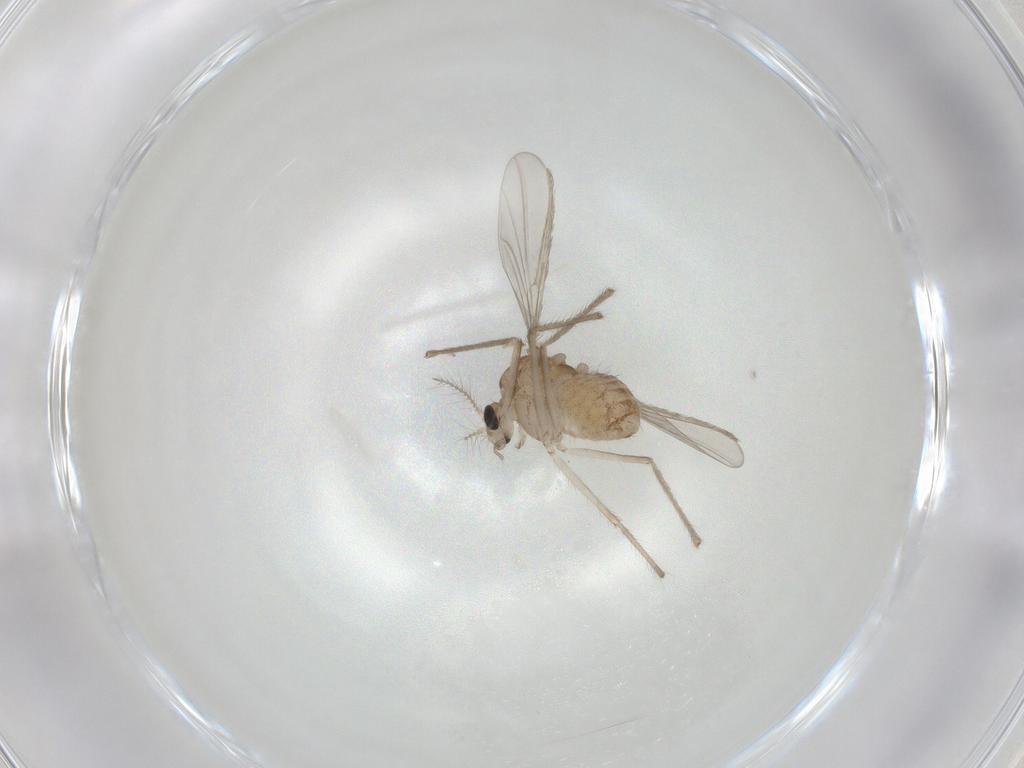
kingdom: Animalia
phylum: Arthropoda
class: Insecta
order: Diptera
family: Chironomidae
